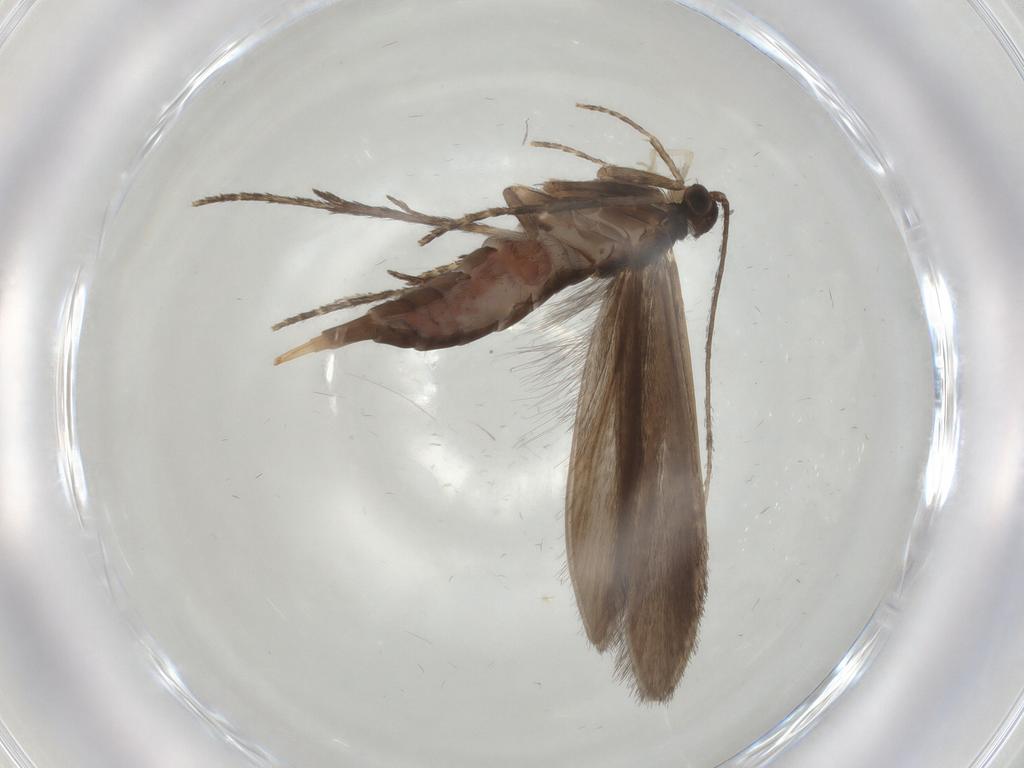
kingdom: Animalia
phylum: Arthropoda
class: Insecta
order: Trichoptera
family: Xiphocentronidae
